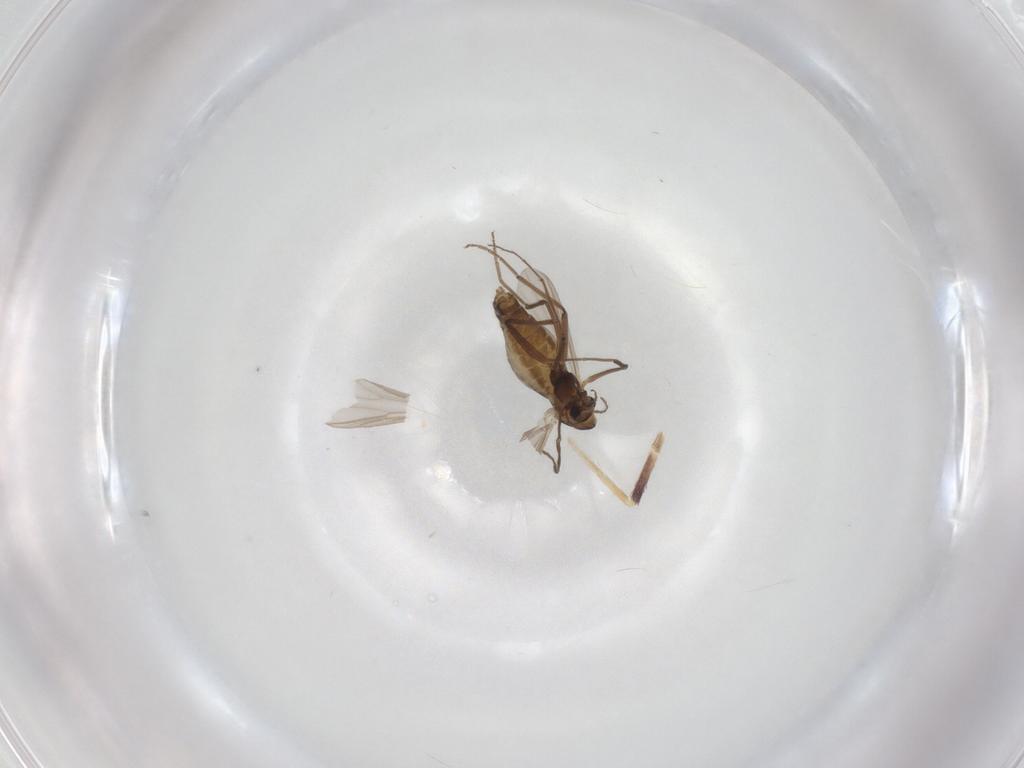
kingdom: Animalia
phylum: Arthropoda
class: Insecta
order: Diptera
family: Chironomidae
